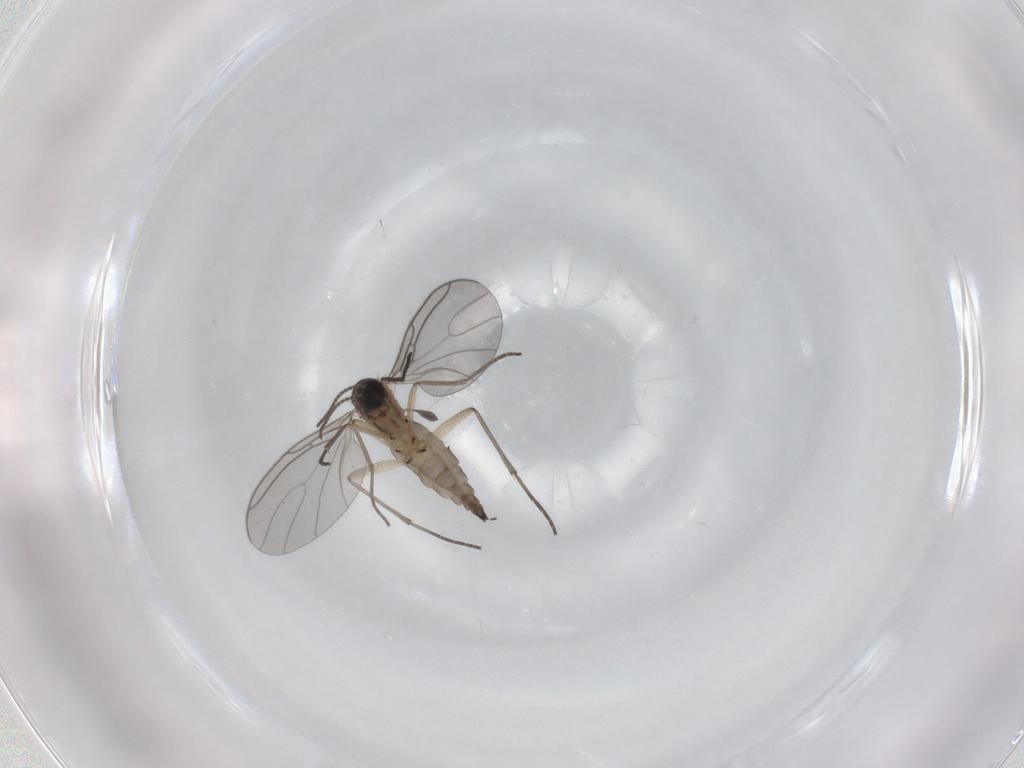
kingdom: Animalia
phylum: Arthropoda
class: Insecta
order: Diptera
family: Sciaridae
